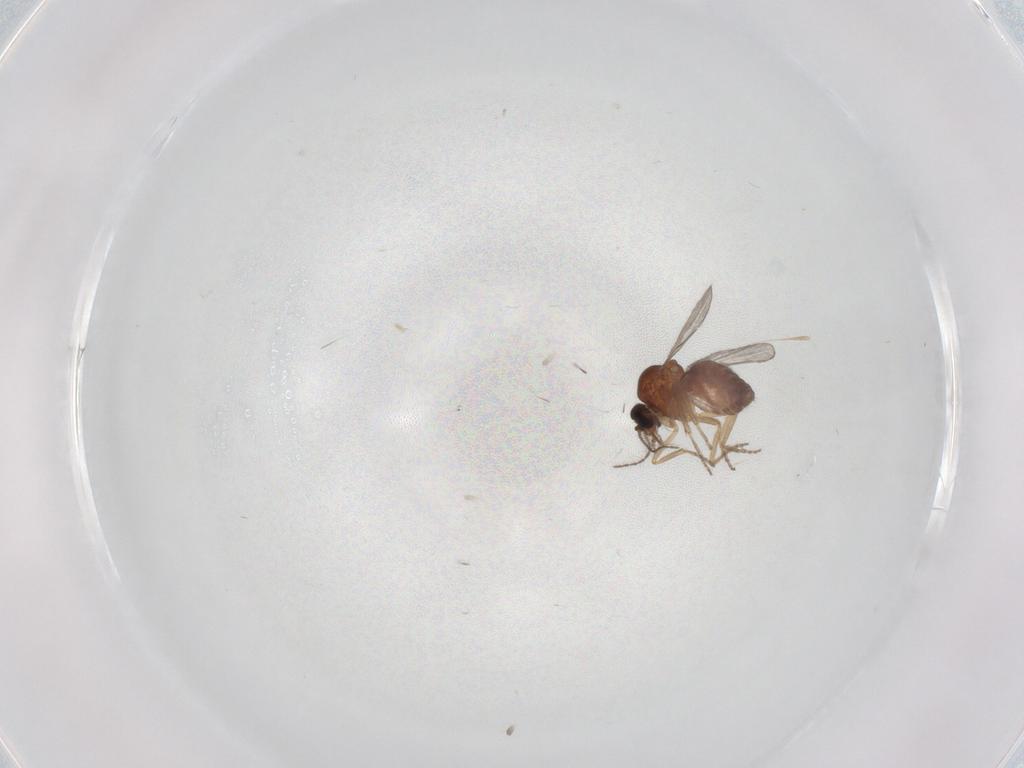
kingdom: Animalia
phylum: Arthropoda
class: Insecta
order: Diptera
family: Ceratopogonidae
